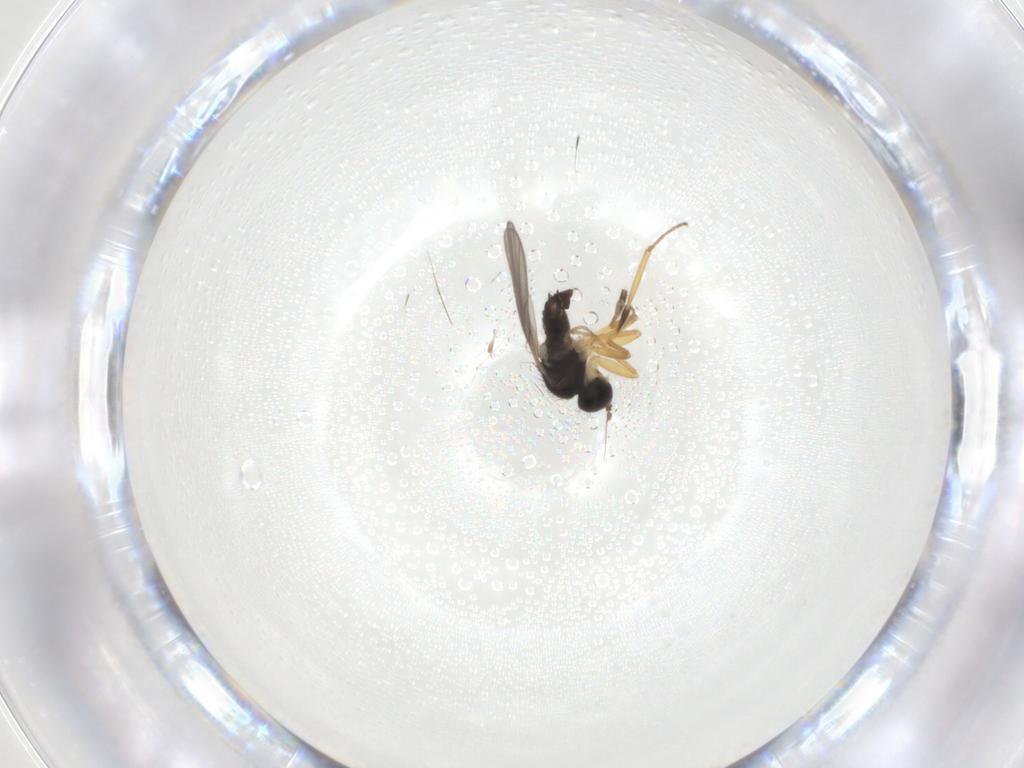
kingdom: Animalia
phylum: Arthropoda
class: Insecta
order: Diptera
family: Hybotidae
